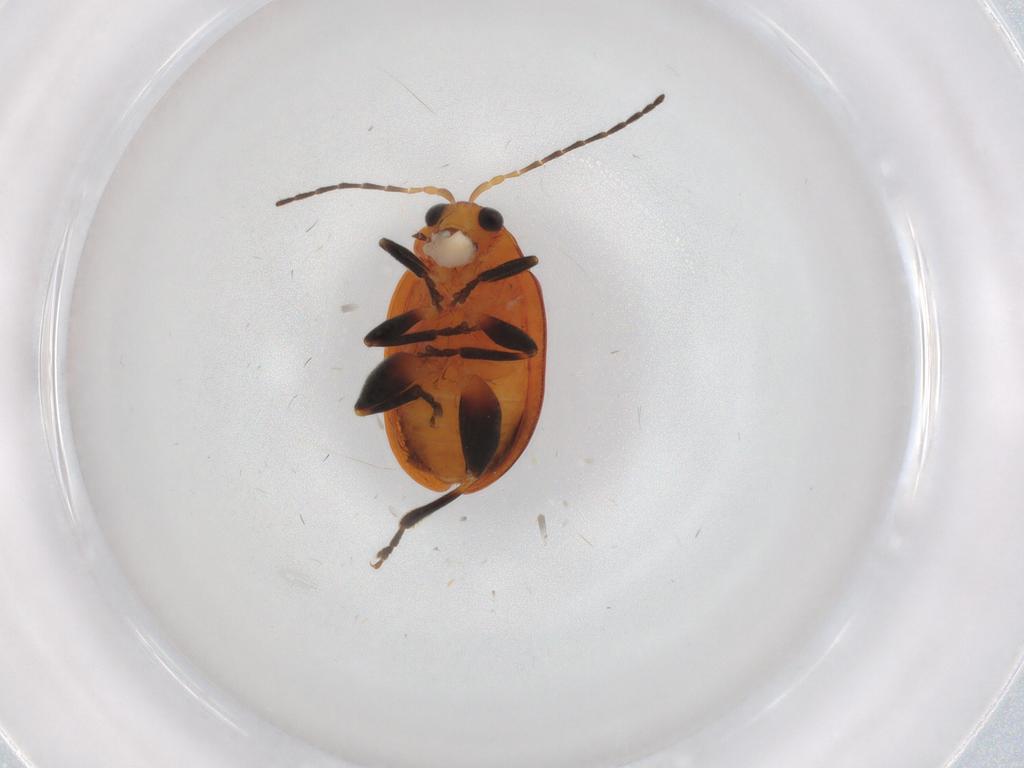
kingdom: Animalia
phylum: Arthropoda
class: Insecta
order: Coleoptera
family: Ptilodactylidae
